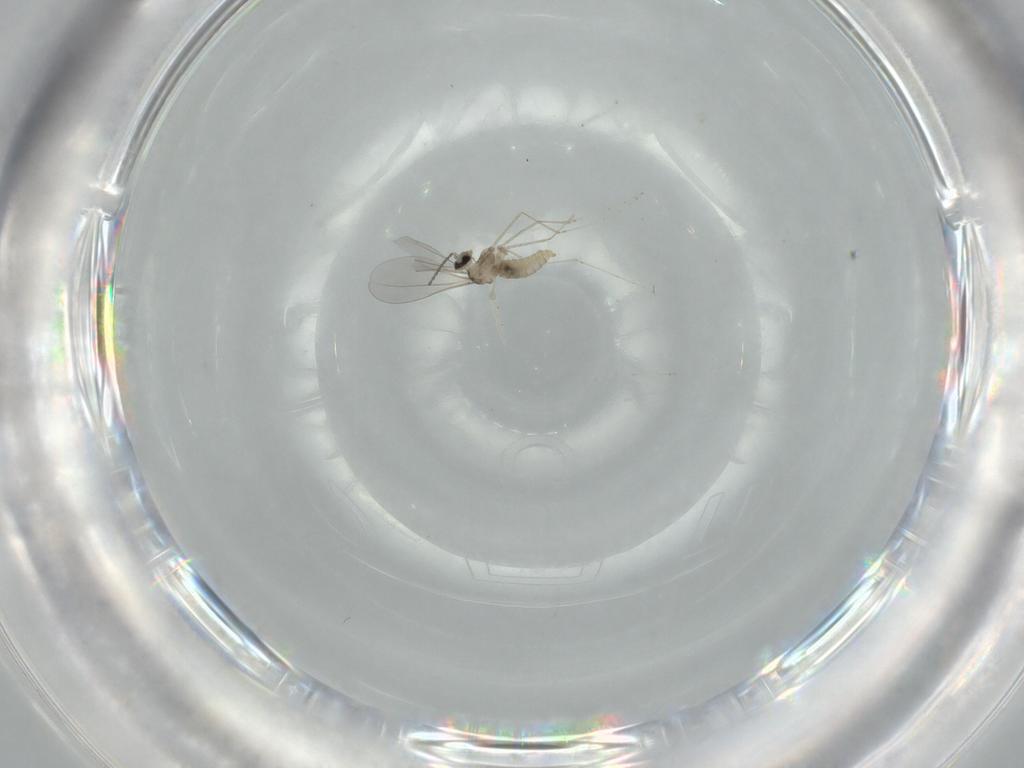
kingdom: Animalia
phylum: Arthropoda
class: Insecta
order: Diptera
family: Cecidomyiidae
